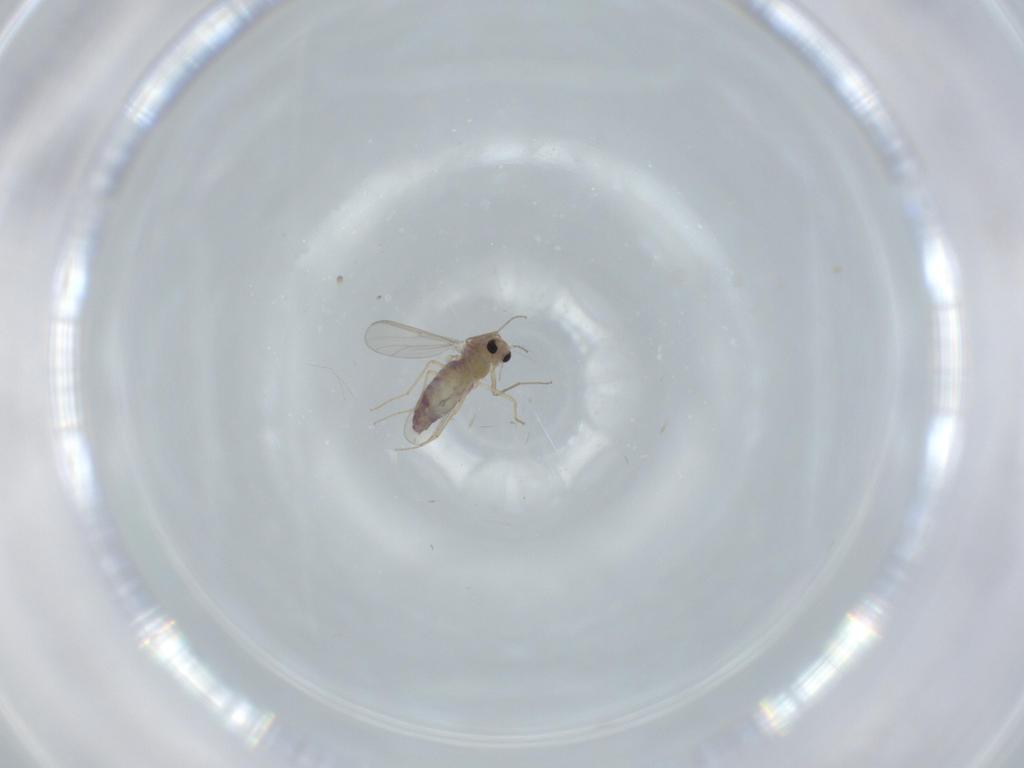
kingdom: Animalia
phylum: Arthropoda
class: Insecta
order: Diptera
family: Chironomidae
